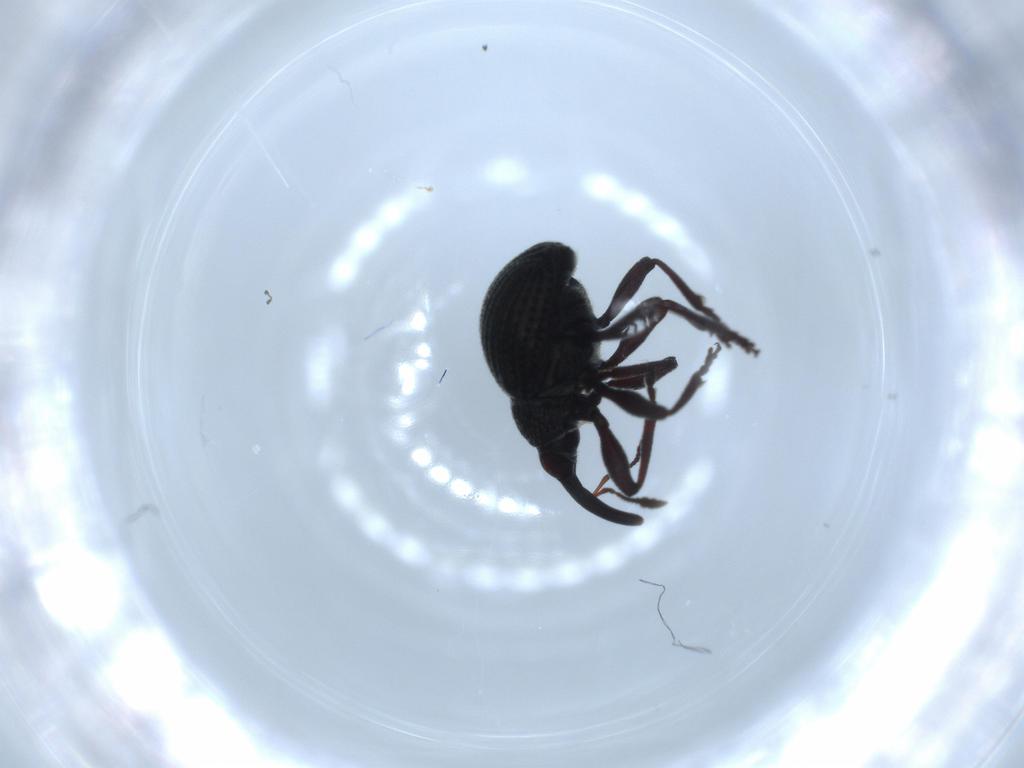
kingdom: Animalia
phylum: Arthropoda
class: Insecta
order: Coleoptera
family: Brentidae
